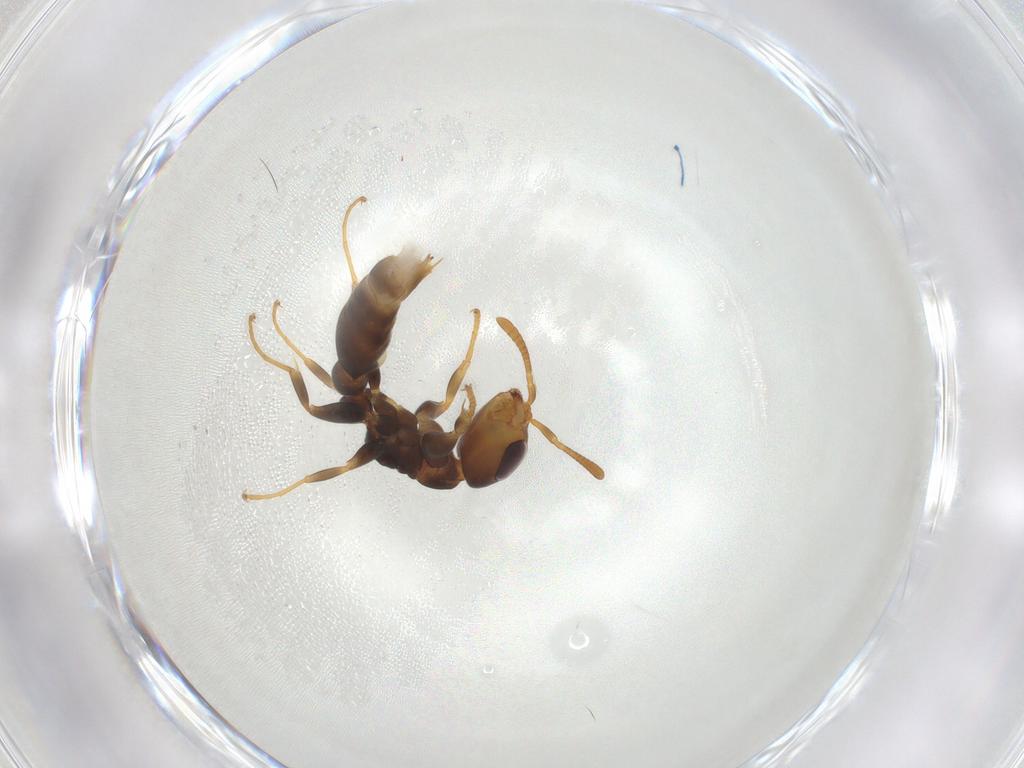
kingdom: Animalia
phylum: Arthropoda
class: Insecta
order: Hymenoptera
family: Formicidae
